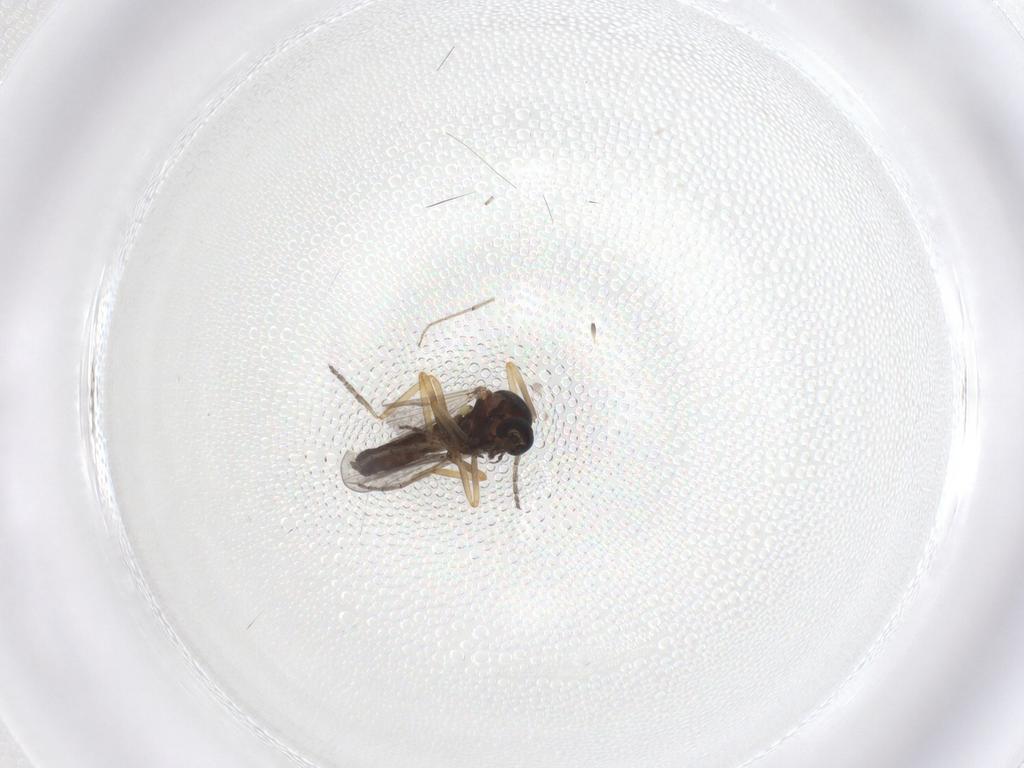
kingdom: Animalia
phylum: Arthropoda
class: Insecta
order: Diptera
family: Ceratopogonidae
